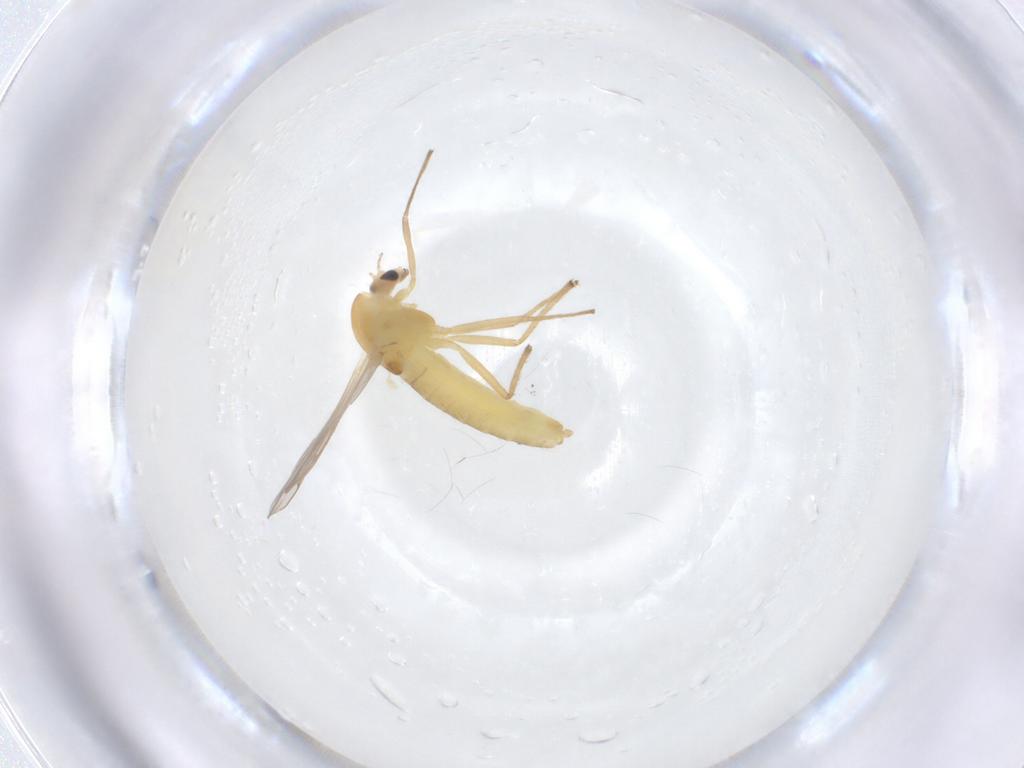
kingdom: Animalia
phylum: Arthropoda
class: Insecta
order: Diptera
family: Chironomidae
